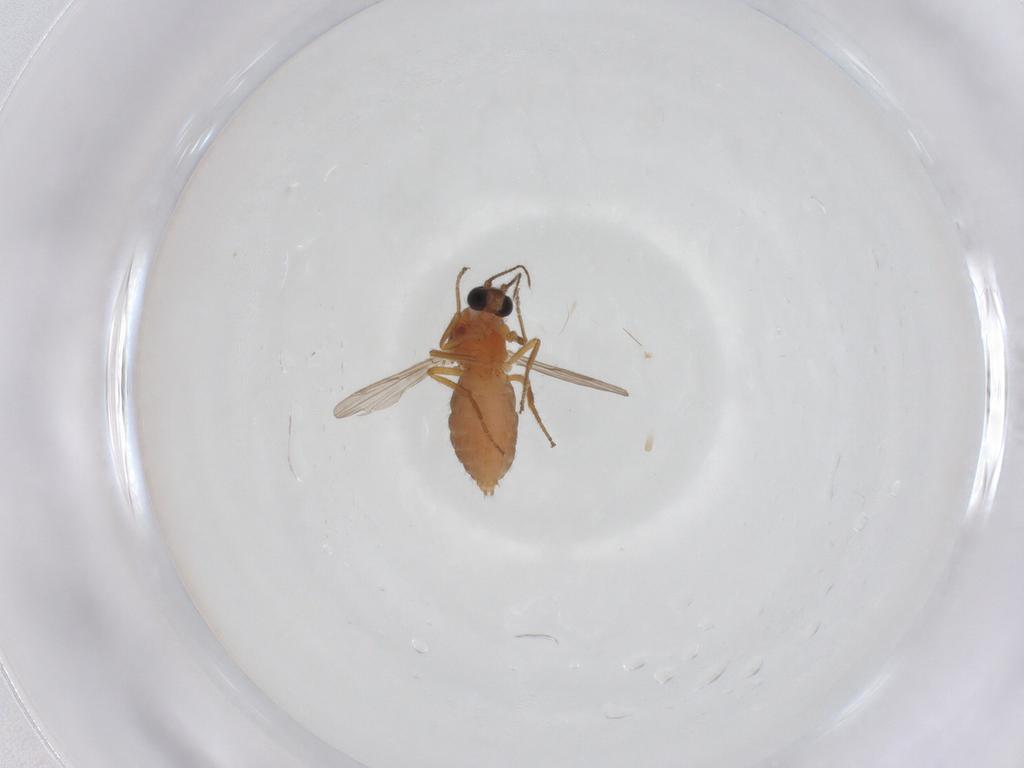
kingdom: Animalia
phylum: Arthropoda
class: Insecta
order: Diptera
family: Ceratopogonidae
